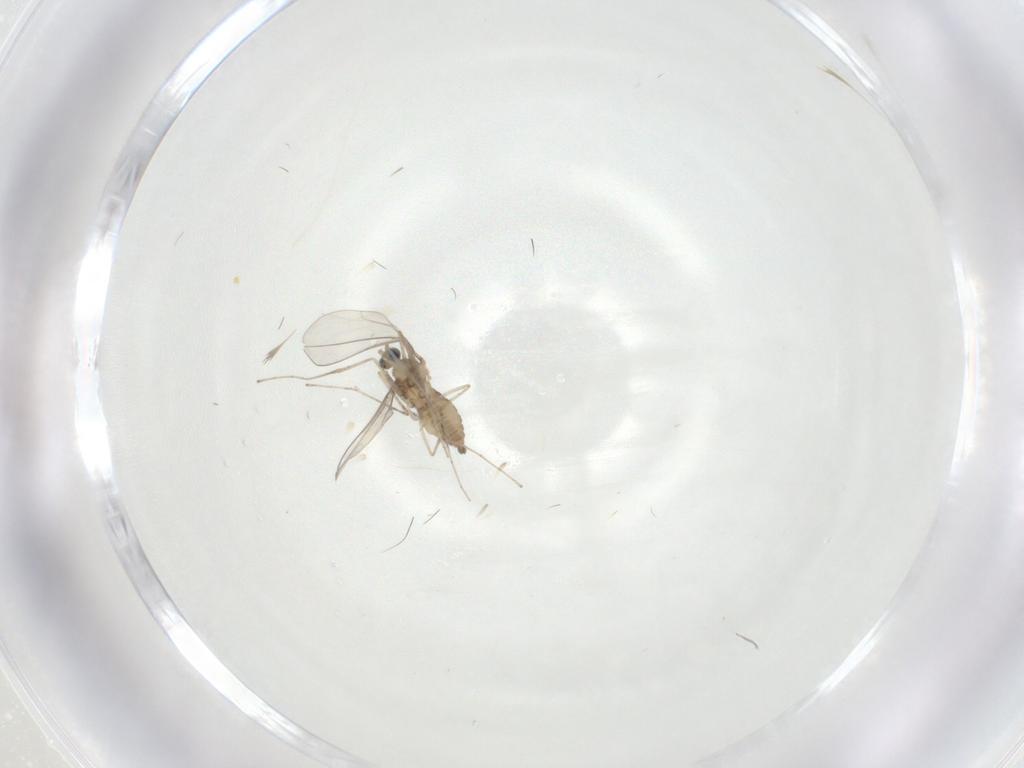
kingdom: Animalia
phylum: Arthropoda
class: Insecta
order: Diptera
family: Cecidomyiidae
